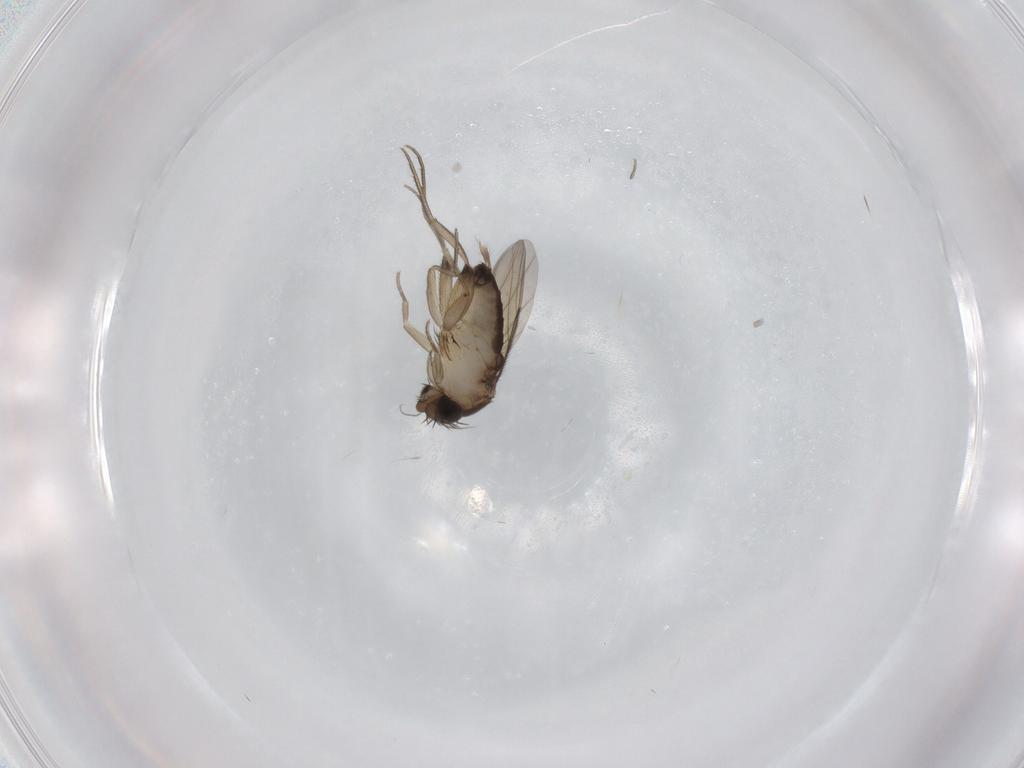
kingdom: Animalia
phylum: Arthropoda
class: Insecta
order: Diptera
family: Phoridae
